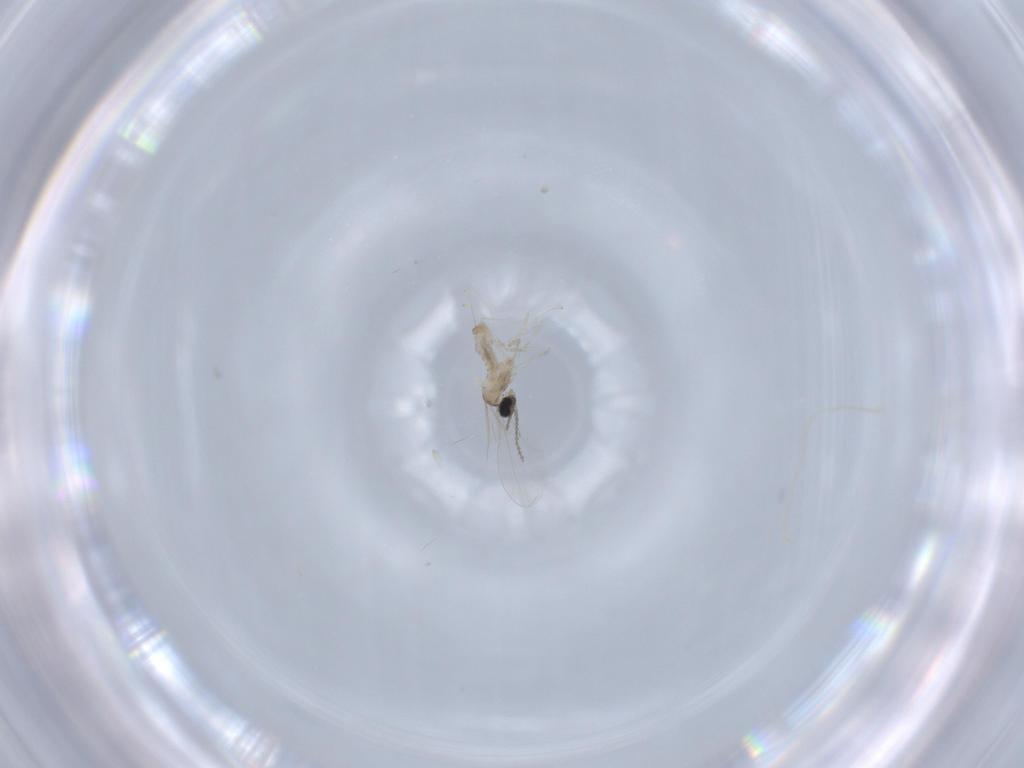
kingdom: Animalia
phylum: Arthropoda
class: Insecta
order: Diptera
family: Cecidomyiidae
